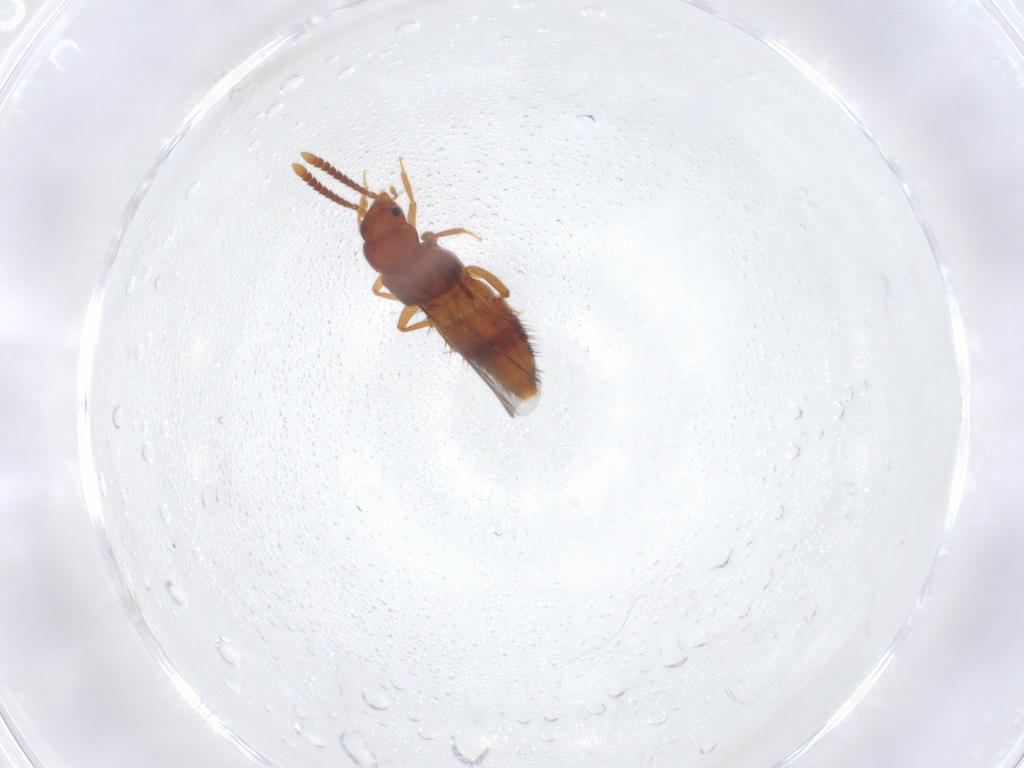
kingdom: Animalia
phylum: Arthropoda
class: Insecta
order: Coleoptera
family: Staphylinidae
